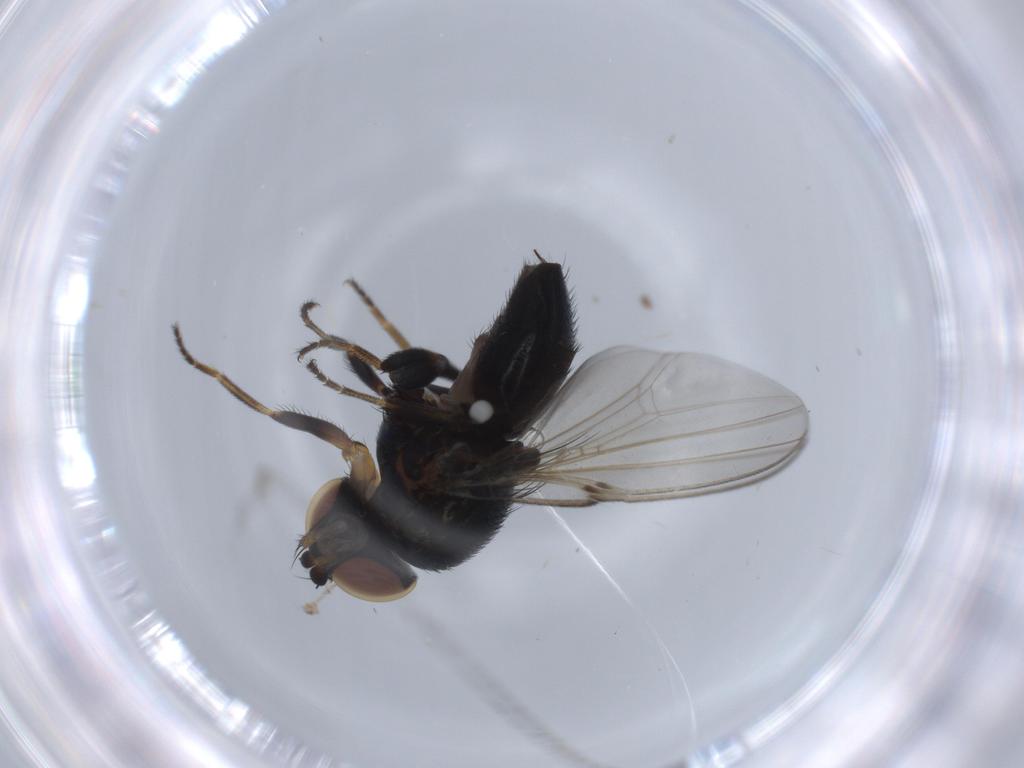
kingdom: Animalia
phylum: Arthropoda
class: Insecta
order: Diptera
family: Milichiidae
